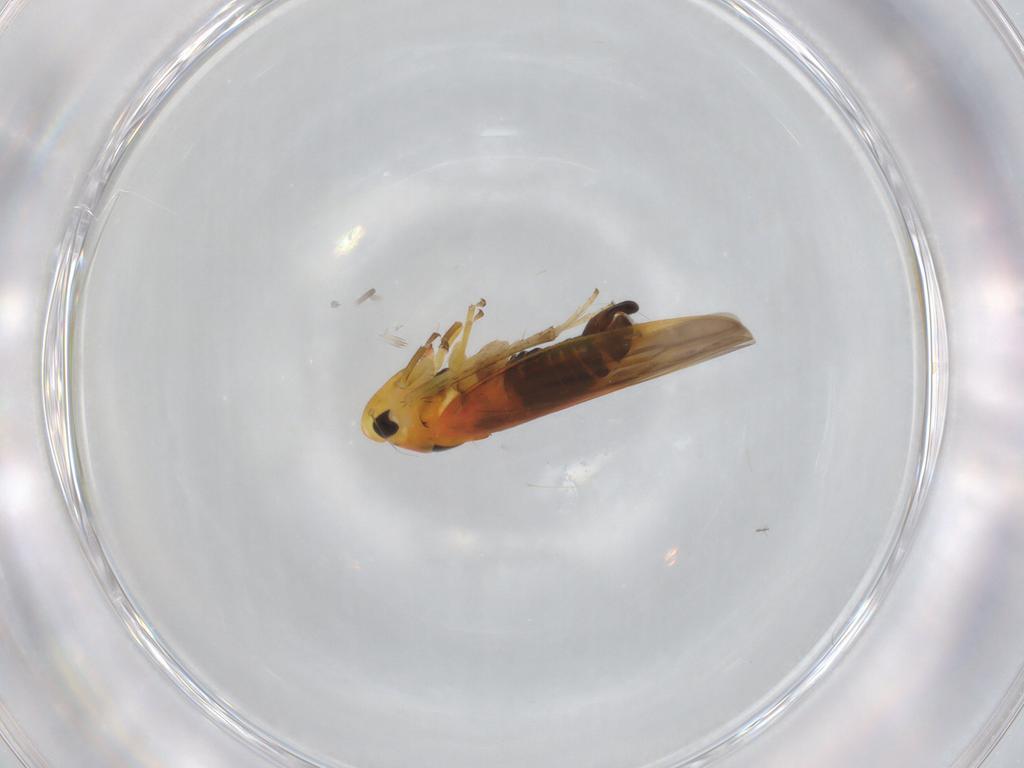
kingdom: Animalia
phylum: Arthropoda
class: Insecta
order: Hemiptera
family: Cicadellidae
